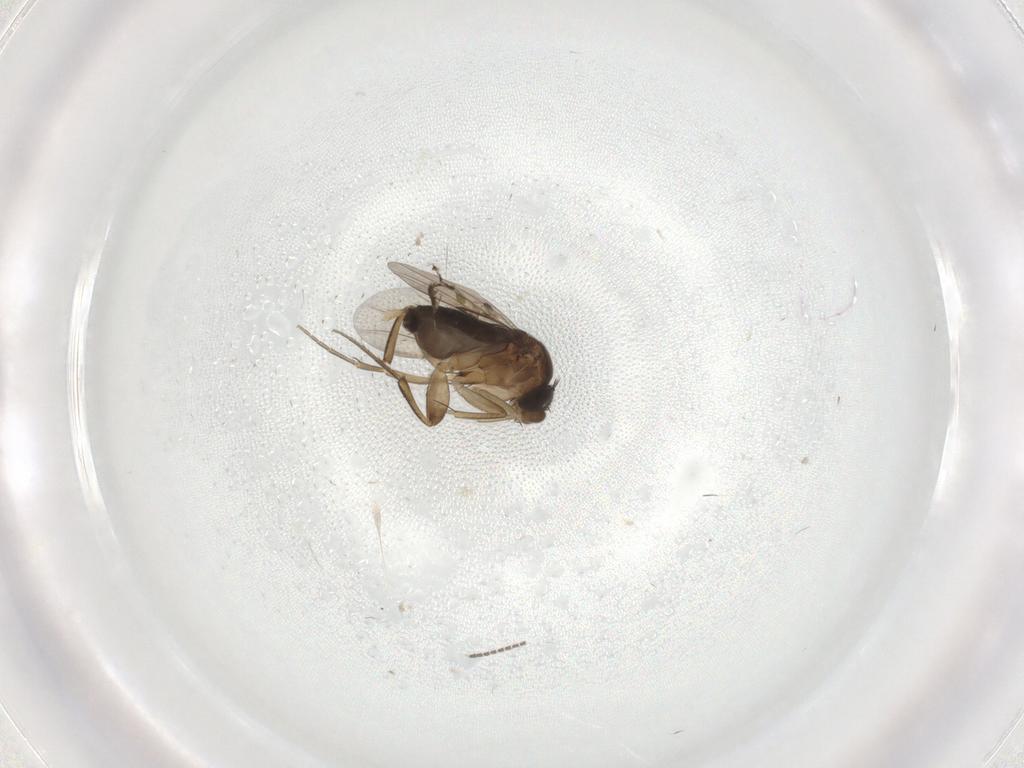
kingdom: Animalia
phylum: Arthropoda
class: Insecta
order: Diptera
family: Phoridae
